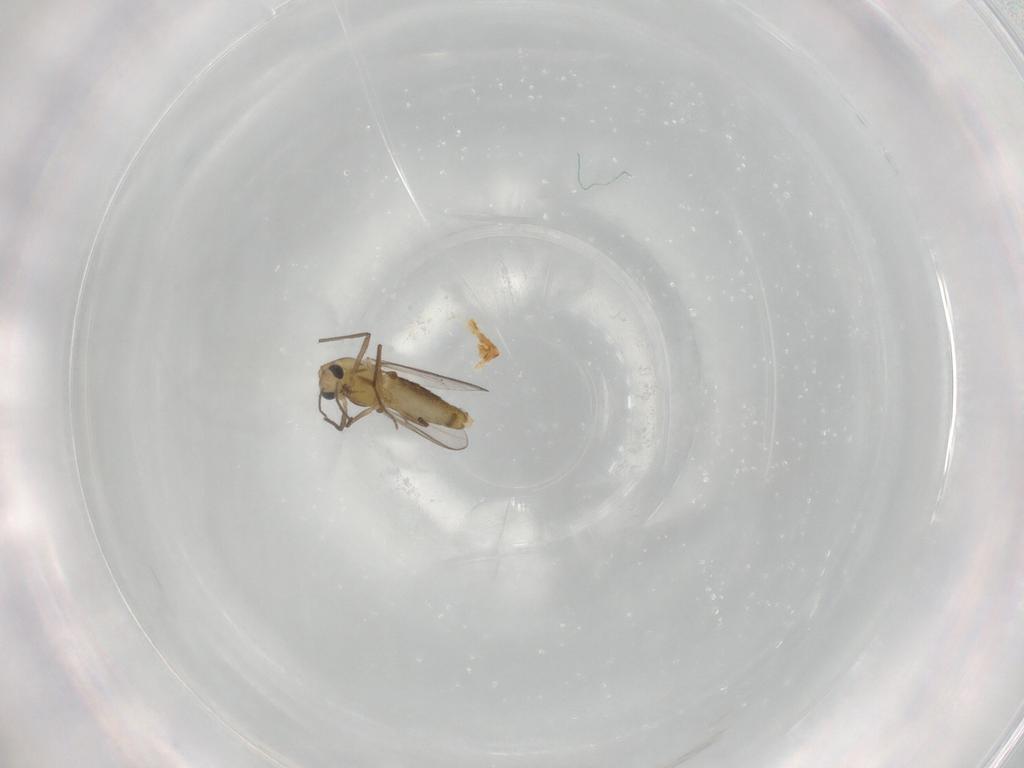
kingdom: Animalia
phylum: Arthropoda
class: Insecta
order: Diptera
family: Chironomidae
